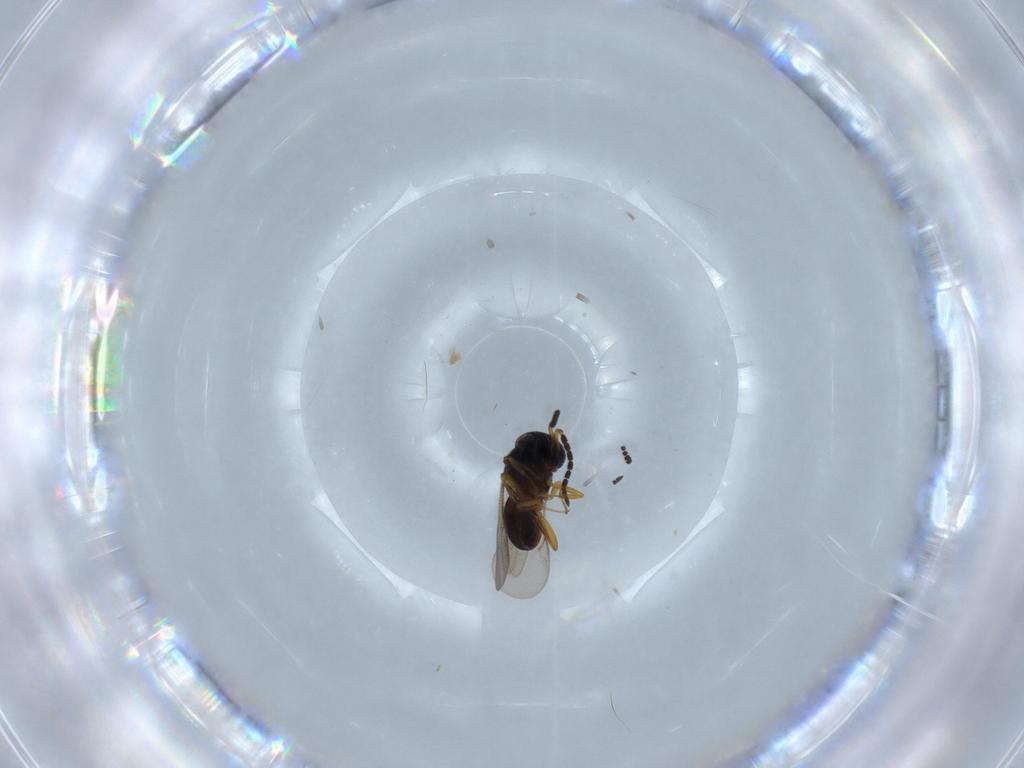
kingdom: Animalia
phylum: Arthropoda
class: Insecta
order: Hymenoptera
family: Scelionidae
